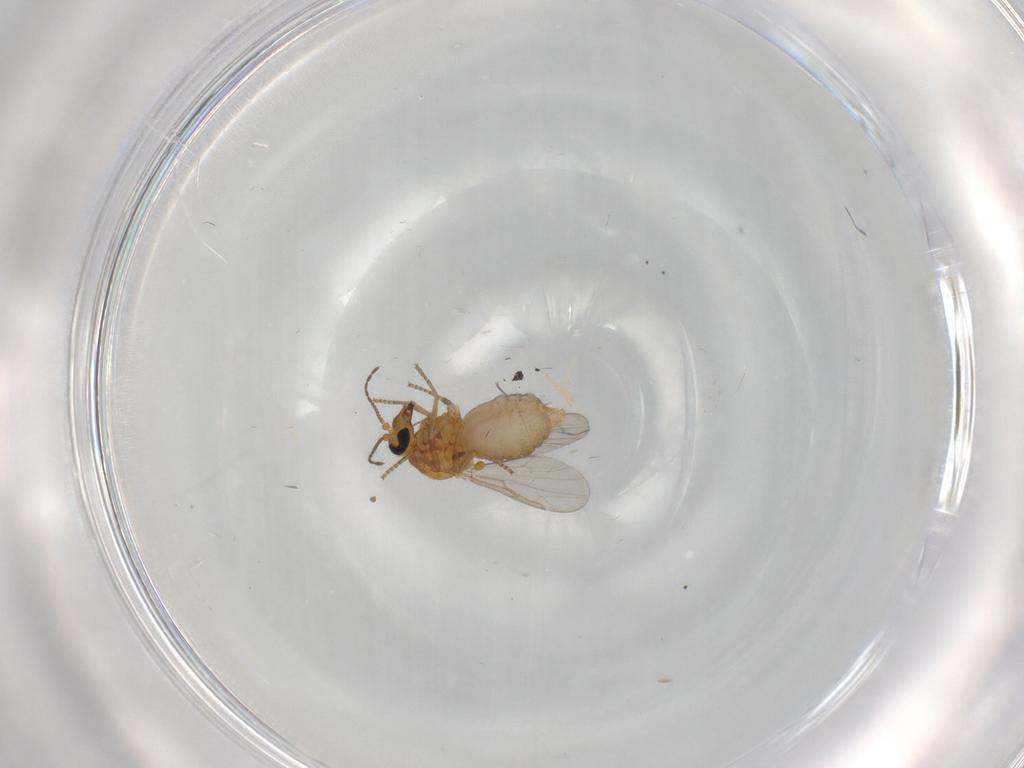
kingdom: Animalia
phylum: Arthropoda
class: Insecta
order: Diptera
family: Ceratopogonidae
